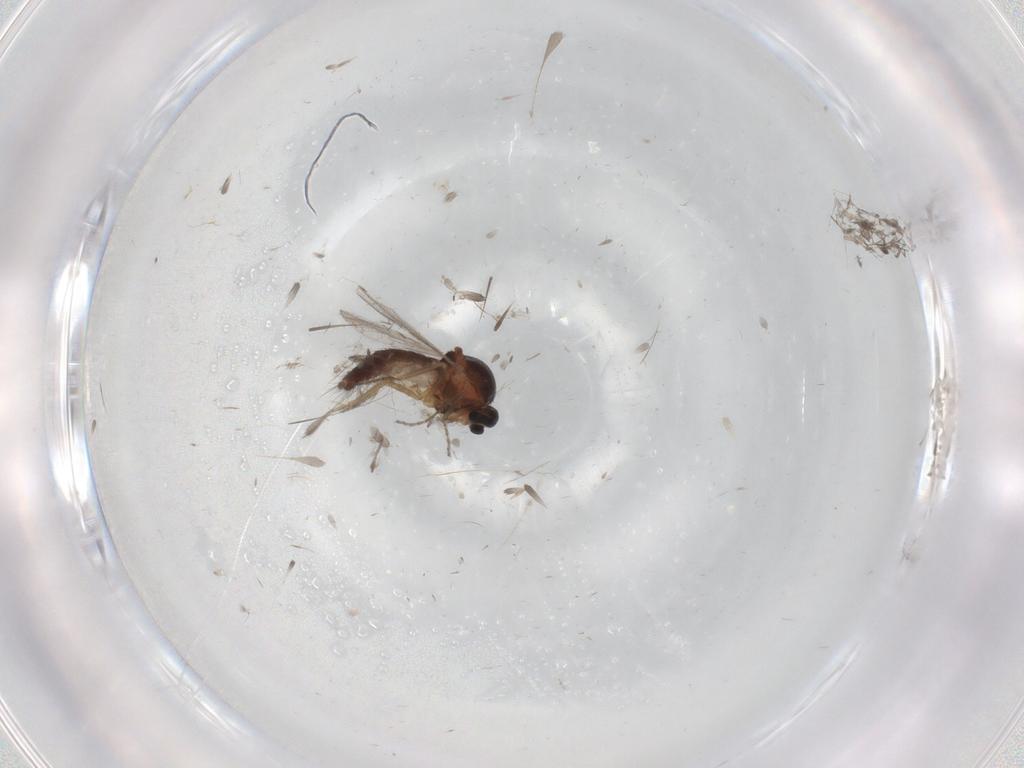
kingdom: Animalia
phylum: Arthropoda
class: Insecta
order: Diptera
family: Ceratopogonidae
